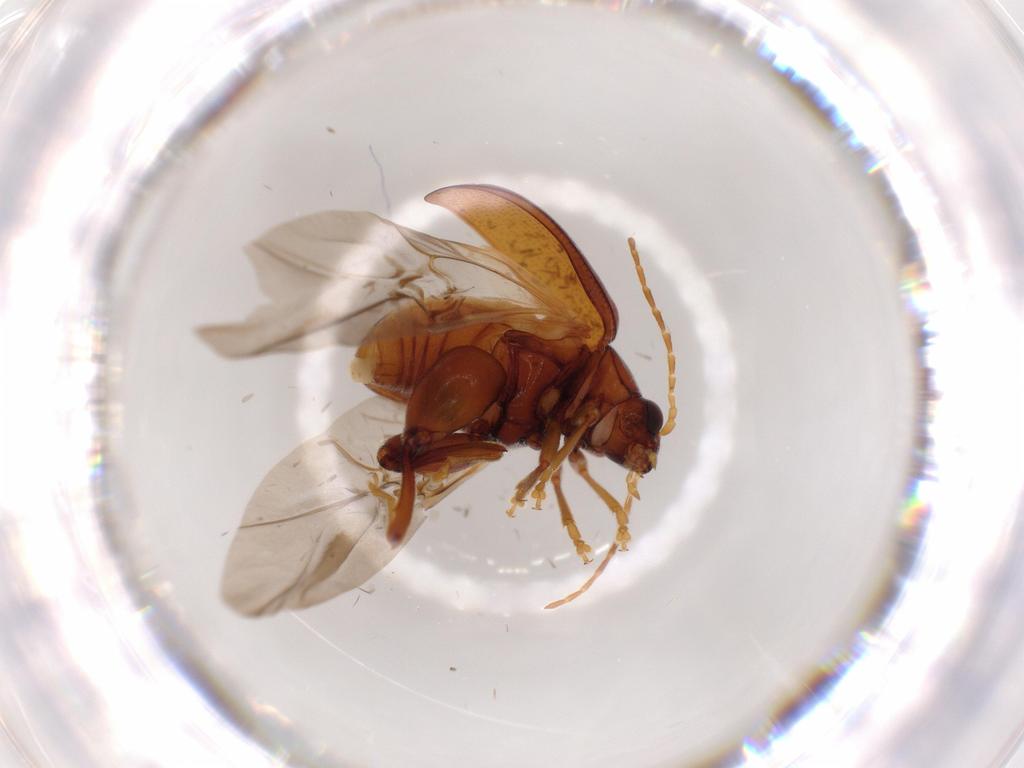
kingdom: Animalia
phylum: Arthropoda
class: Insecta
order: Coleoptera
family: Chrysomelidae
